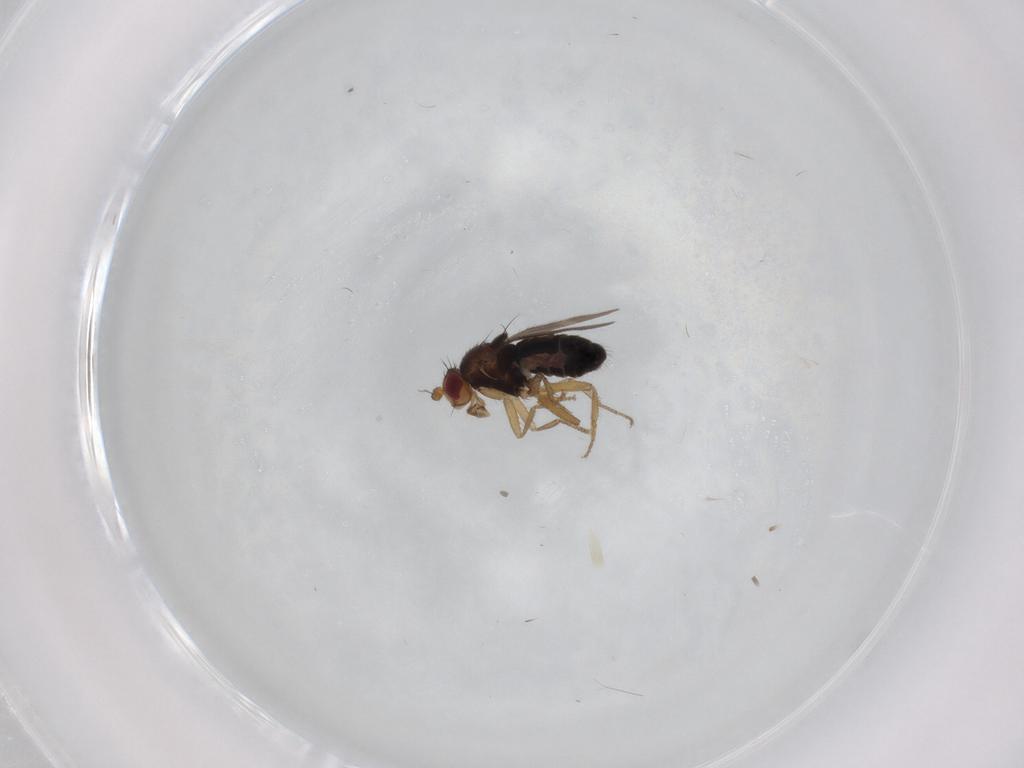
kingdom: Animalia
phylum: Arthropoda
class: Insecta
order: Diptera
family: Sphaeroceridae
